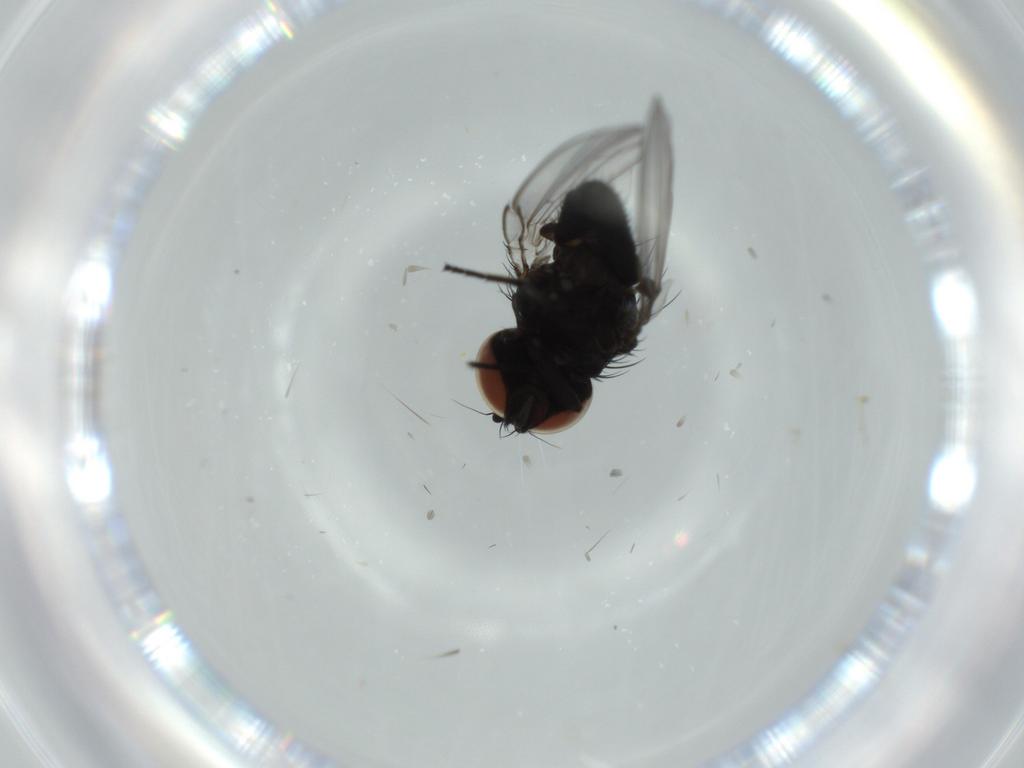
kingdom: Animalia
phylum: Arthropoda
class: Insecta
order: Diptera
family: Milichiidae
